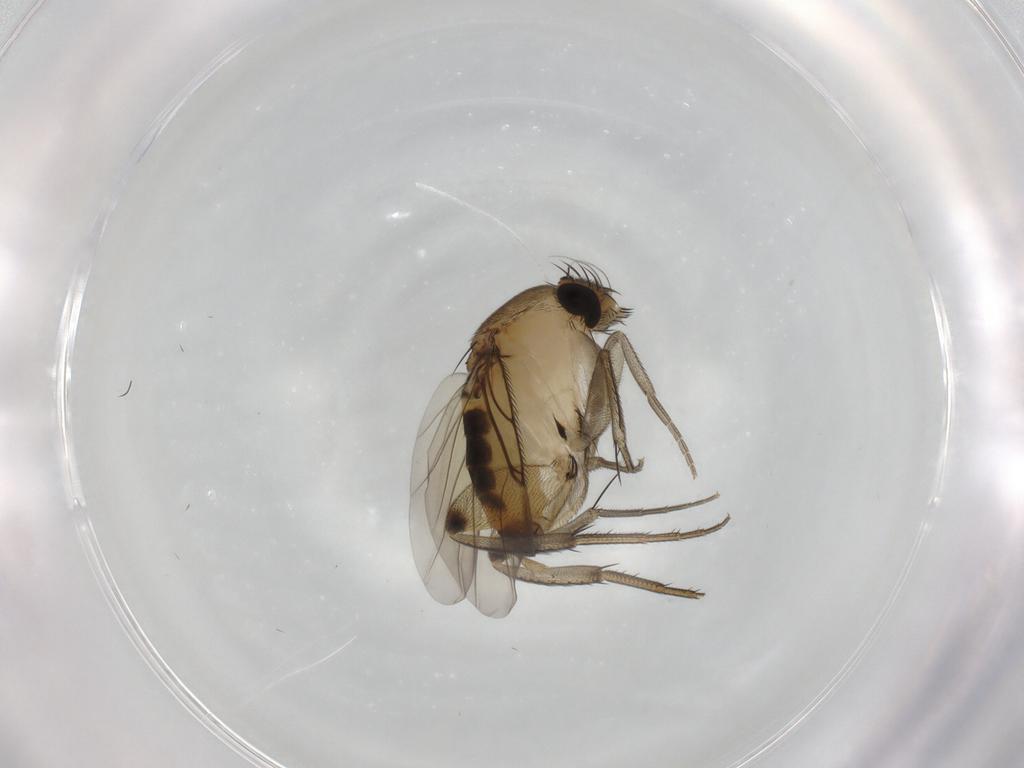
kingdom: Animalia
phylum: Arthropoda
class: Insecta
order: Diptera
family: Phoridae
